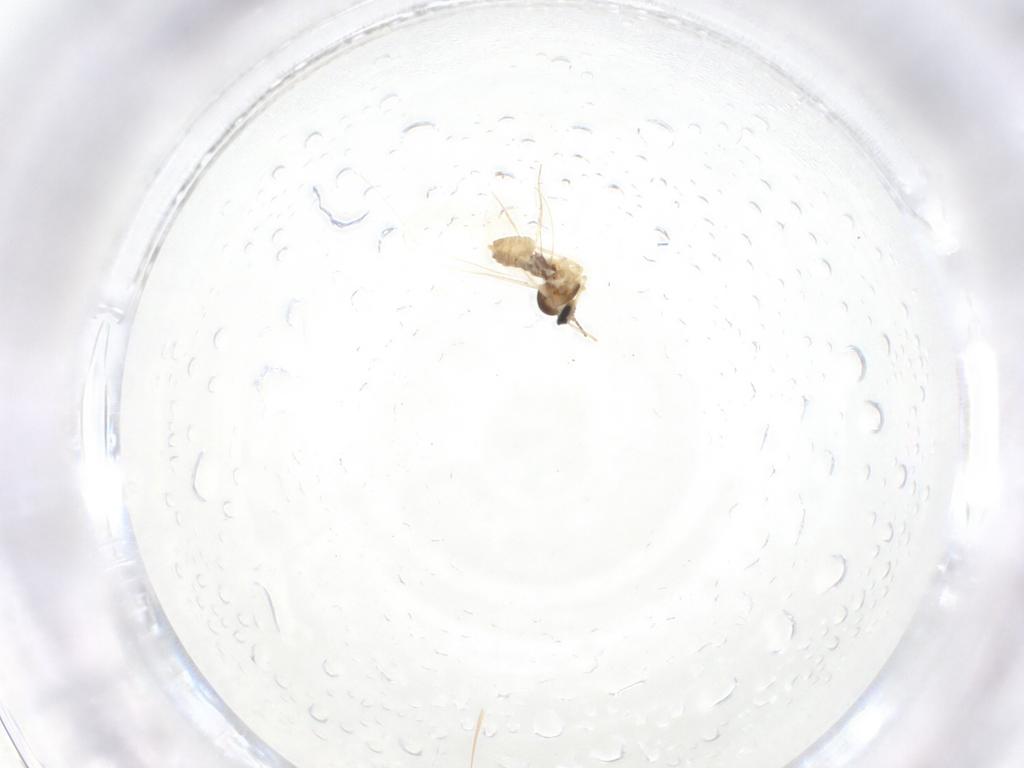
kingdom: Animalia
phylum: Arthropoda
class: Insecta
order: Diptera
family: Cecidomyiidae
